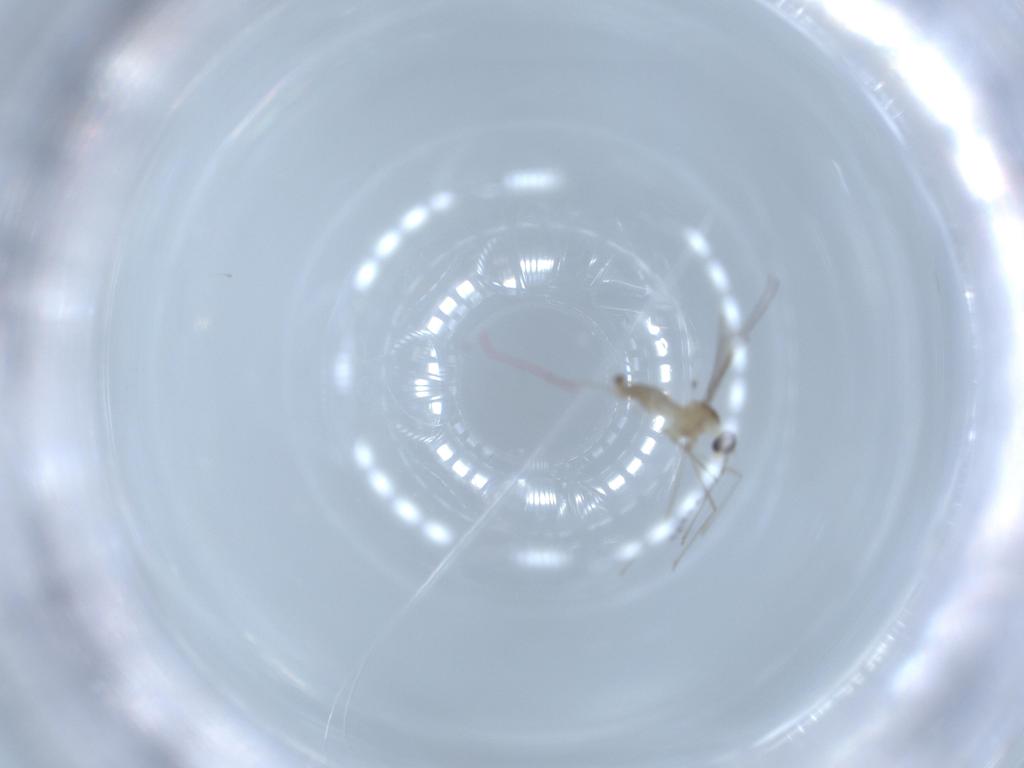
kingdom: Animalia
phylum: Arthropoda
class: Insecta
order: Diptera
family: Cecidomyiidae
